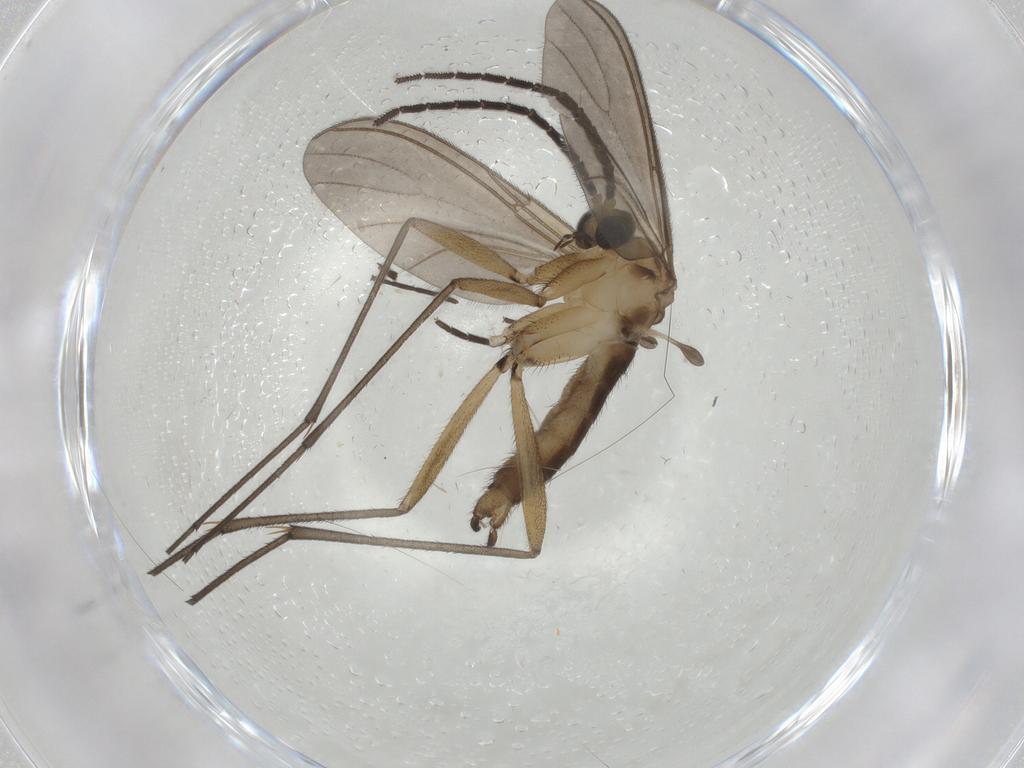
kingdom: Animalia
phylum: Arthropoda
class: Insecta
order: Diptera
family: Sciaridae
